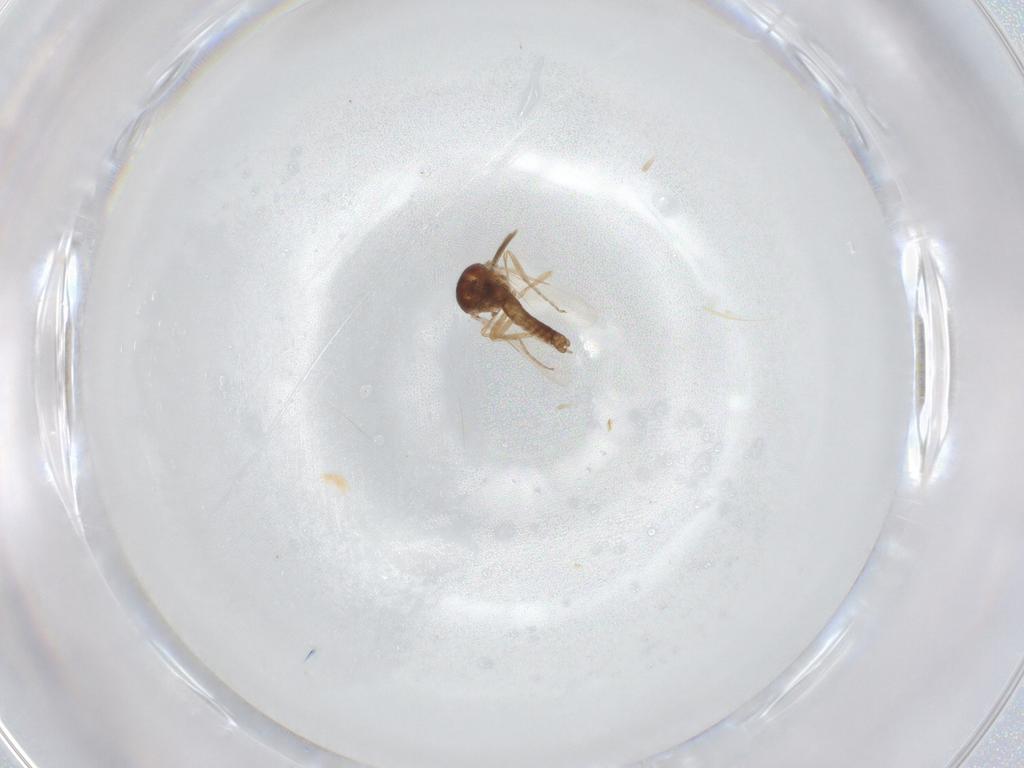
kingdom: Animalia
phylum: Arthropoda
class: Insecta
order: Diptera
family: Ceratopogonidae
